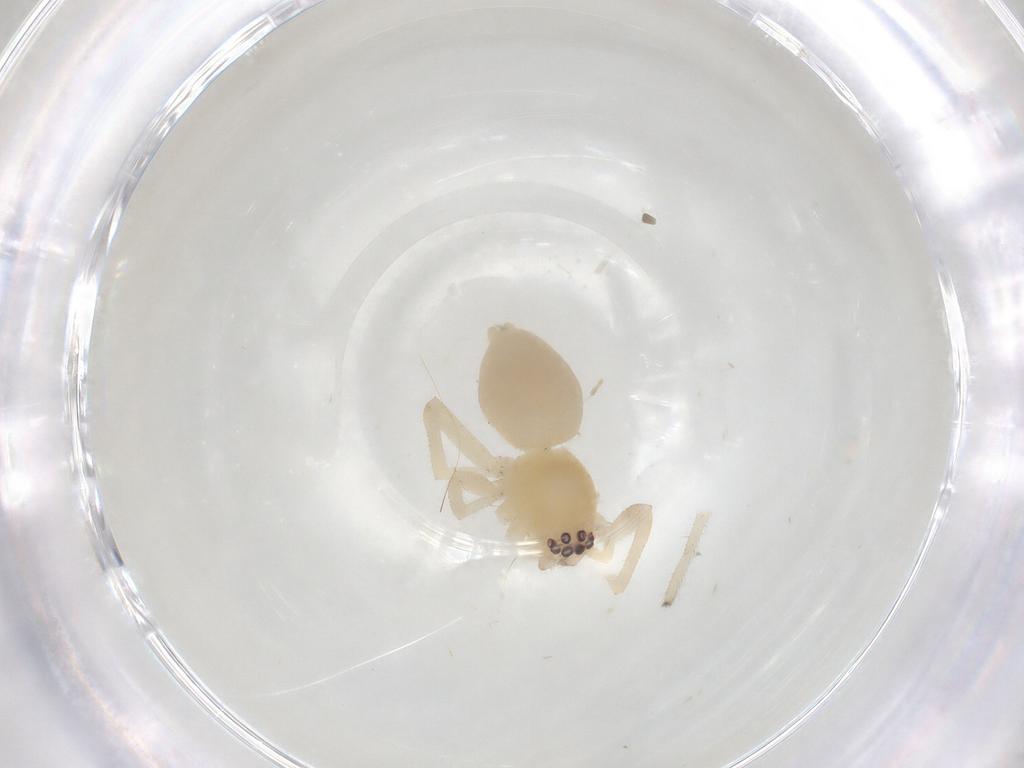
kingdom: Animalia
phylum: Arthropoda
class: Arachnida
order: Araneae
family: Cheiracanthiidae
